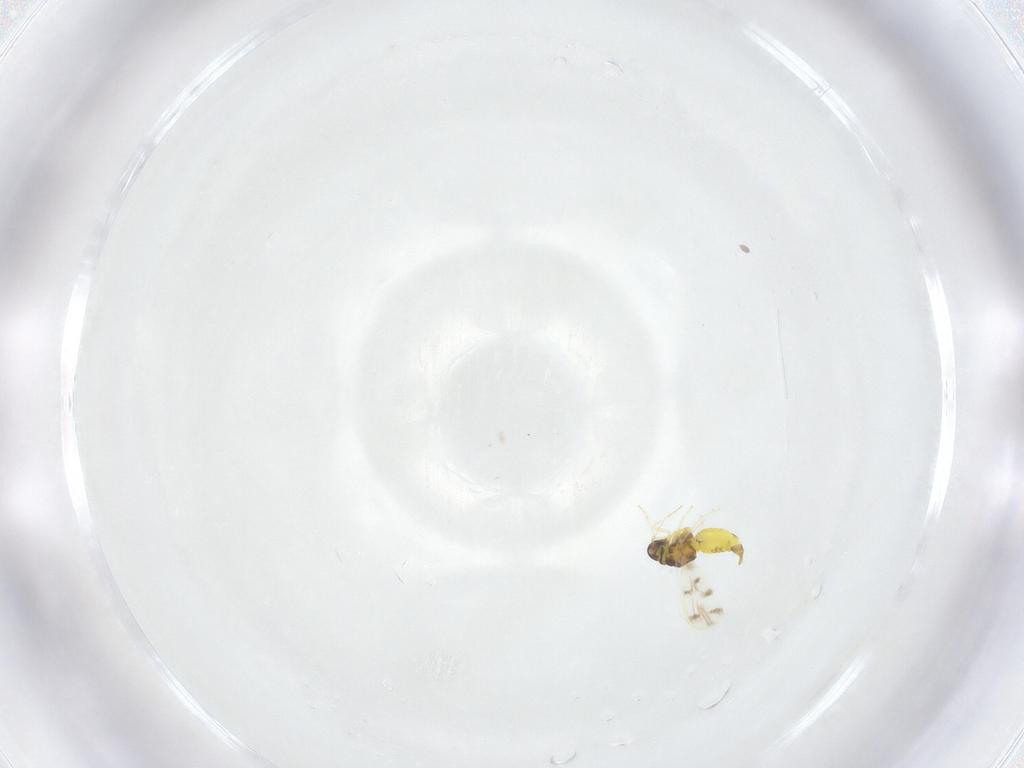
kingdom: Animalia
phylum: Arthropoda
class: Insecta
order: Hemiptera
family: Aleyrodidae
